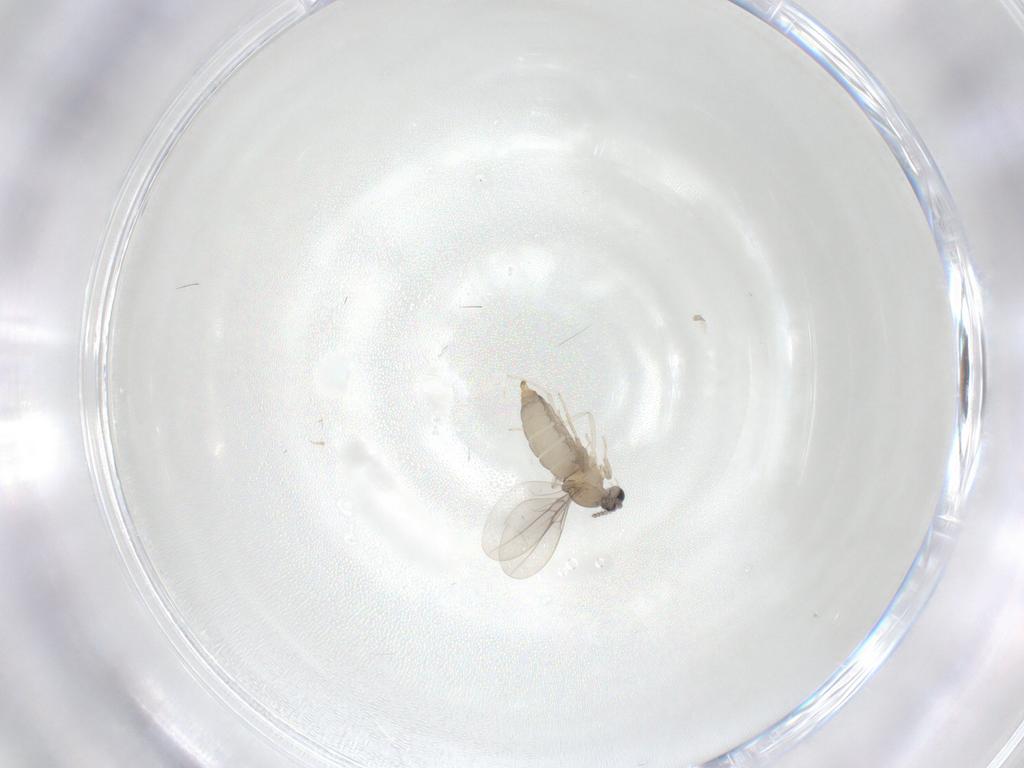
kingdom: Animalia
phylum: Arthropoda
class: Insecta
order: Diptera
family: Cecidomyiidae
